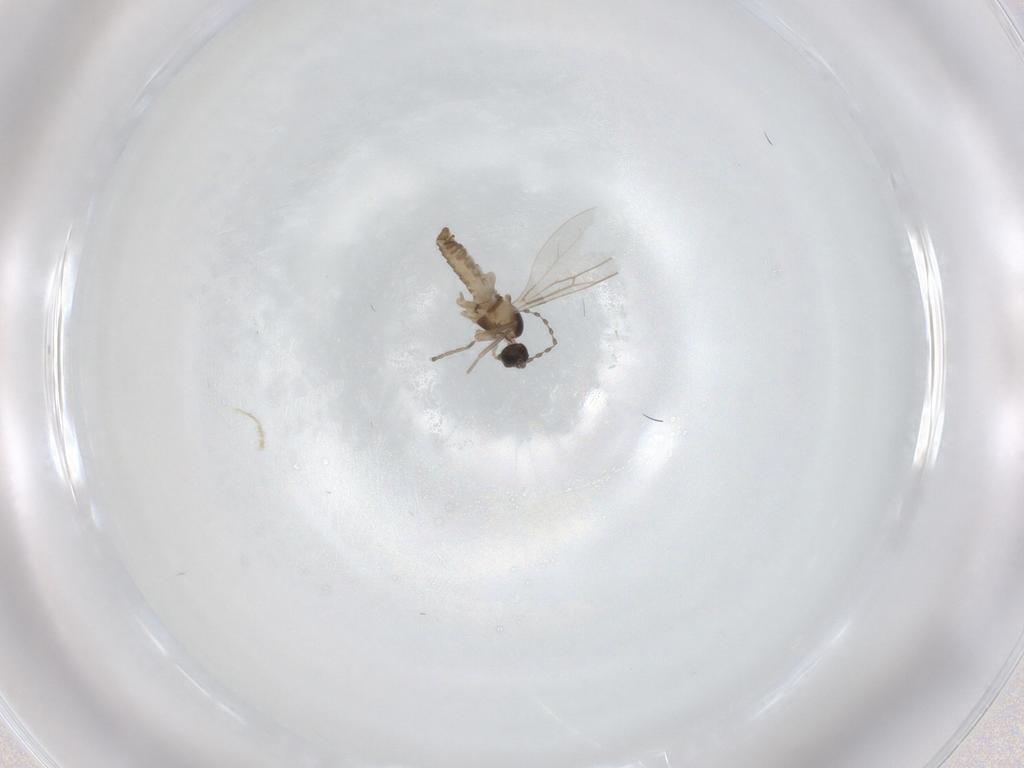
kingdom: Animalia
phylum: Arthropoda
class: Insecta
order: Diptera
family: Cecidomyiidae
